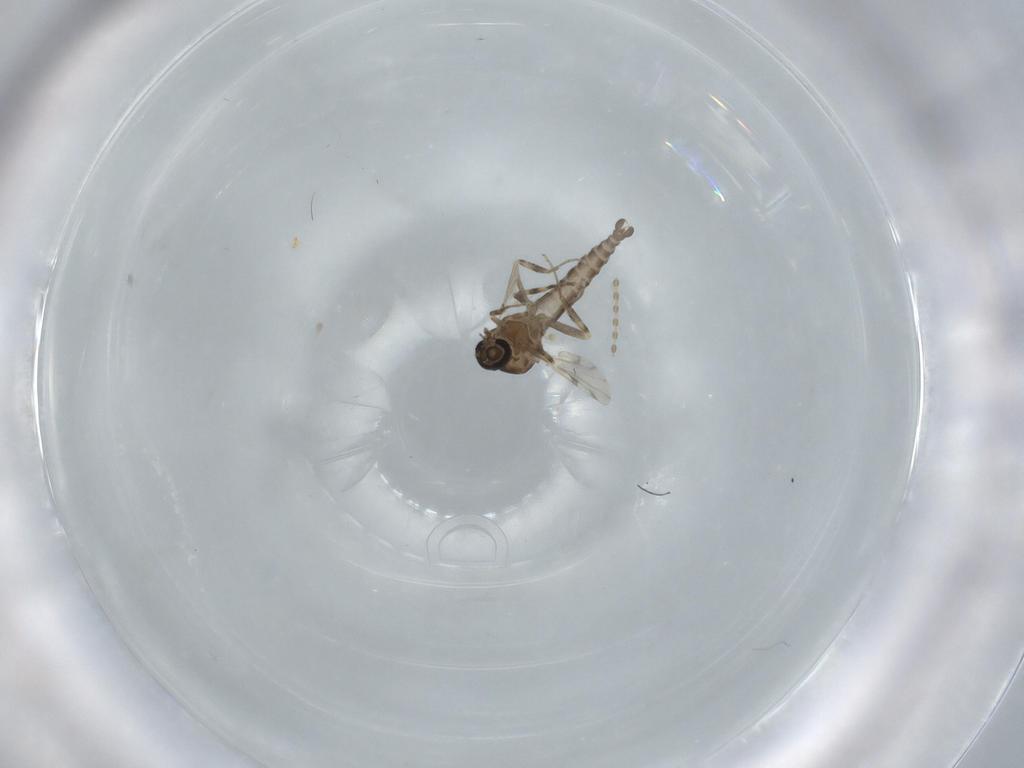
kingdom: Animalia
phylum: Arthropoda
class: Insecta
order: Diptera
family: Ceratopogonidae
